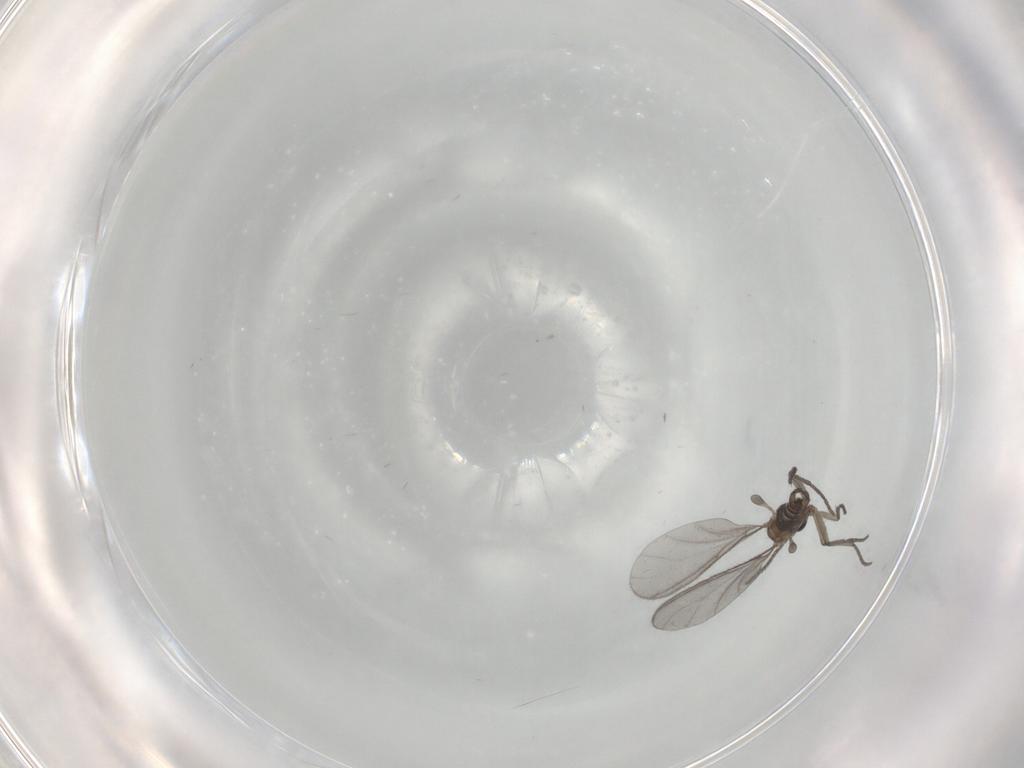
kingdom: Animalia
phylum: Arthropoda
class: Insecta
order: Diptera
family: Sciaridae
